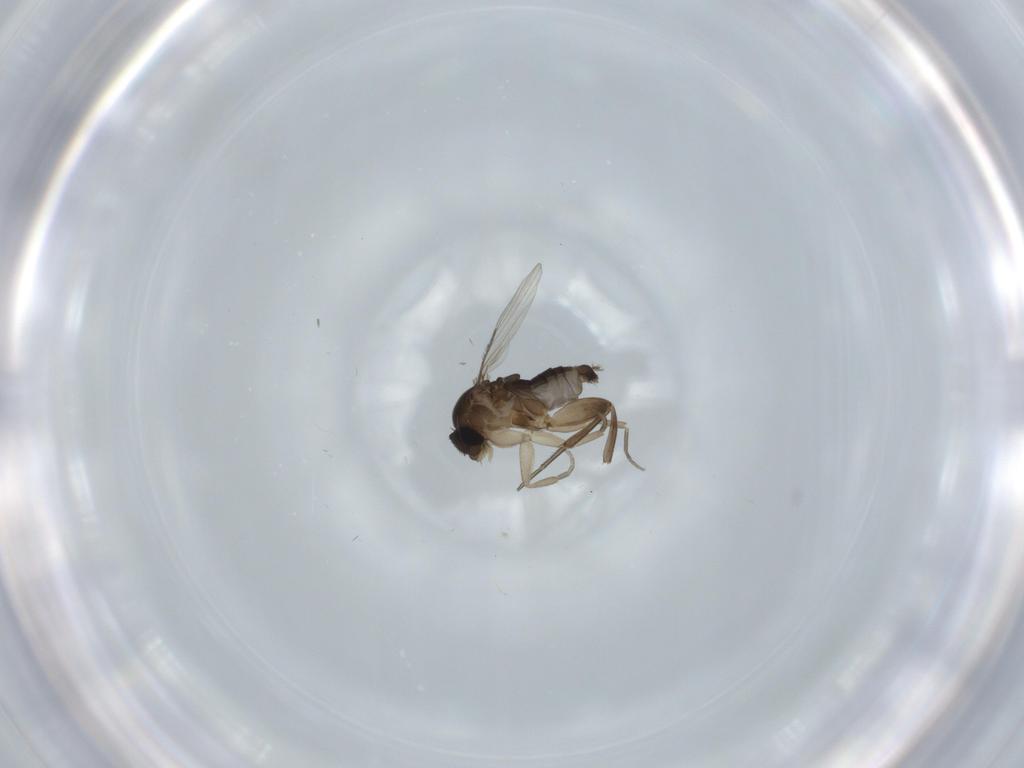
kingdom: Animalia
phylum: Arthropoda
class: Insecta
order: Diptera
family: Phoridae
